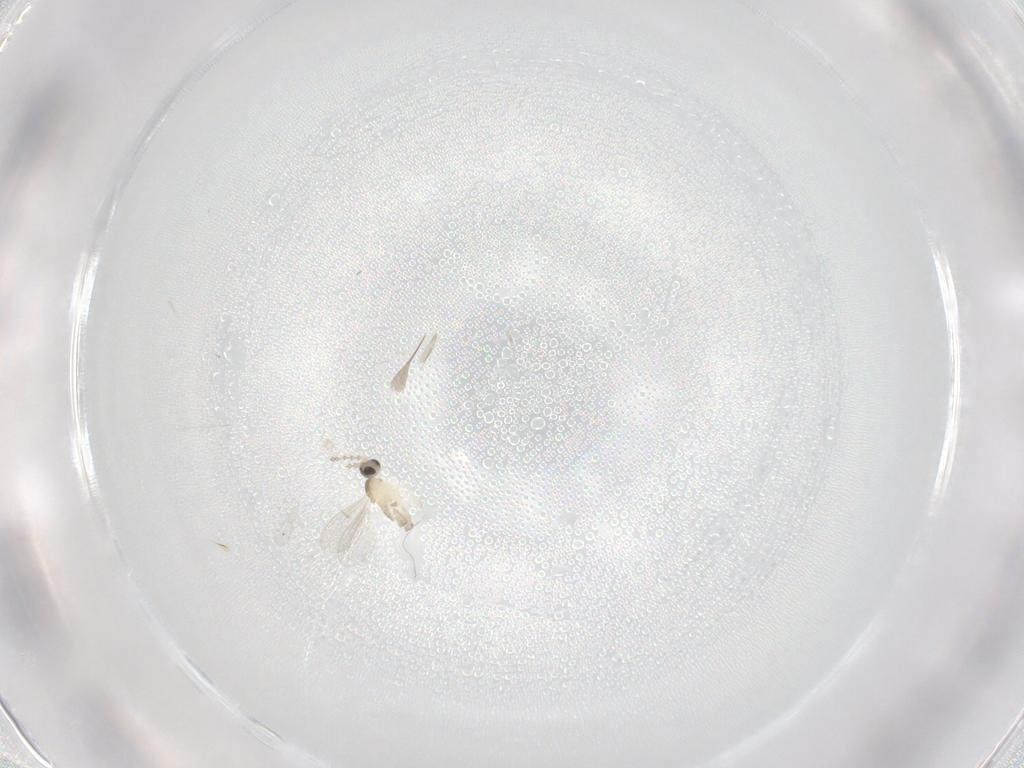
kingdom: Animalia
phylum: Arthropoda
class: Insecta
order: Diptera
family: Cecidomyiidae
